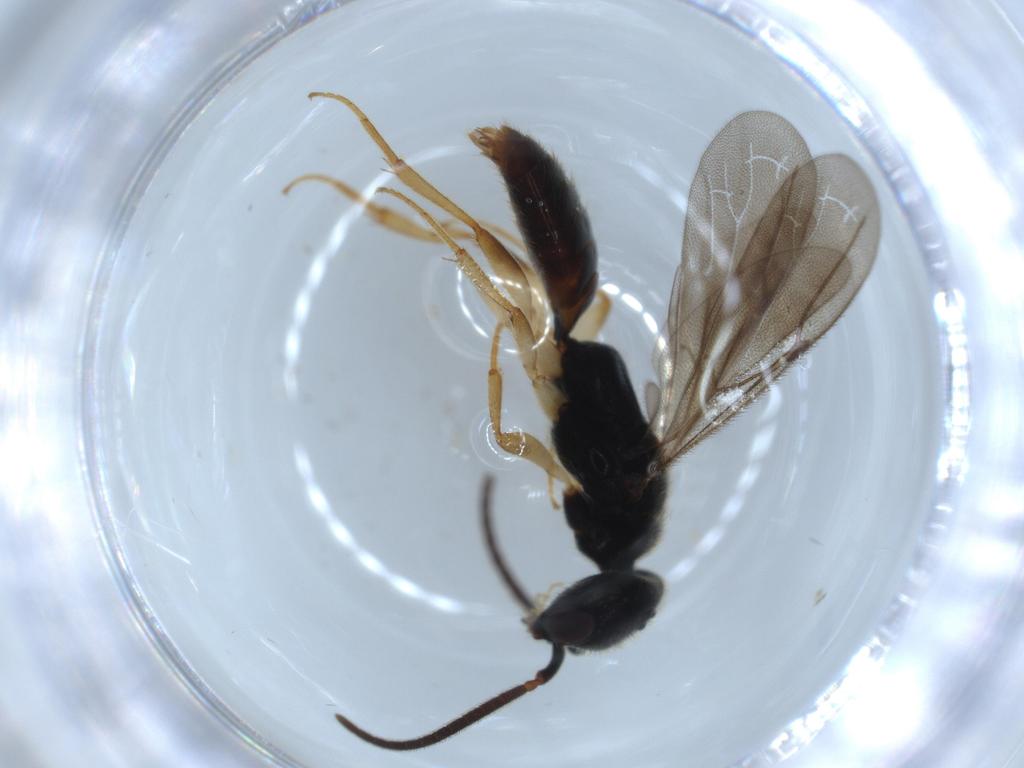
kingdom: Animalia
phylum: Arthropoda
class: Insecta
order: Hymenoptera
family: Bethylidae
